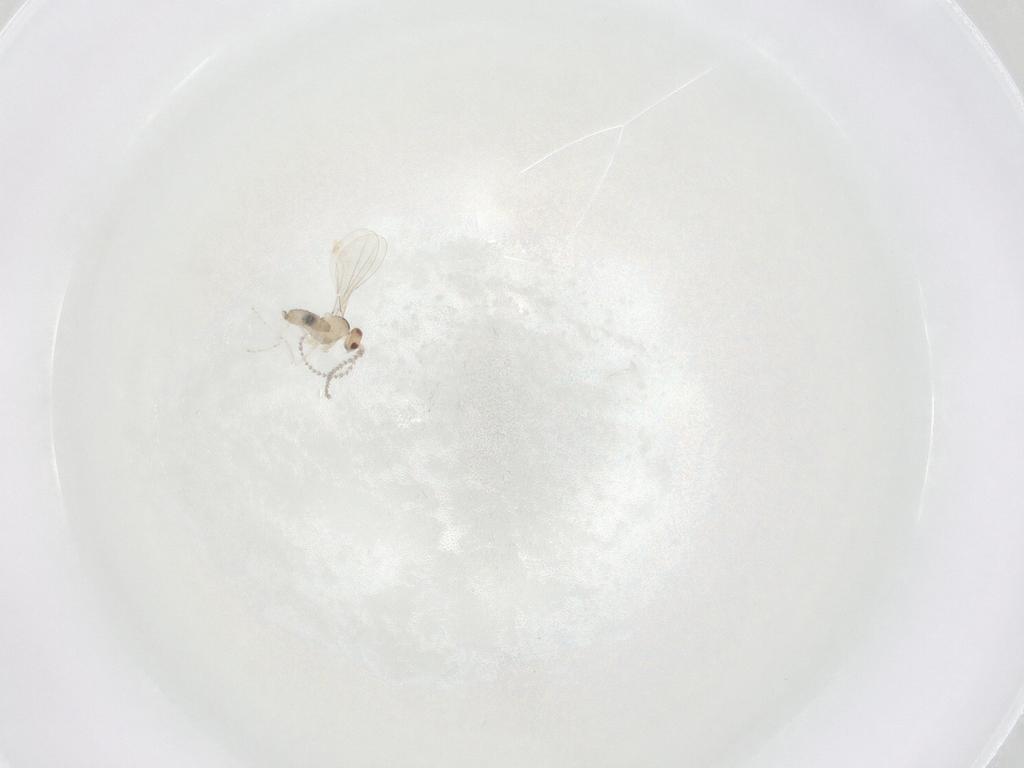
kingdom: Animalia
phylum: Arthropoda
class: Insecta
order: Diptera
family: Cecidomyiidae
